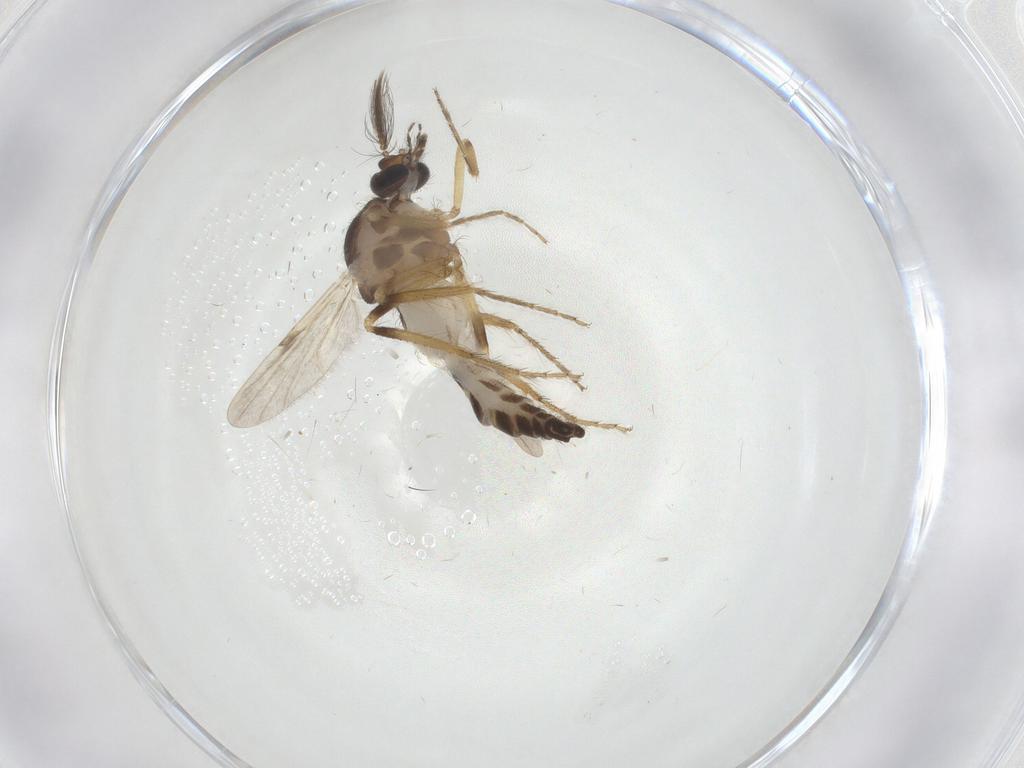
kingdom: Animalia
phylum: Arthropoda
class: Insecta
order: Diptera
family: Ceratopogonidae
